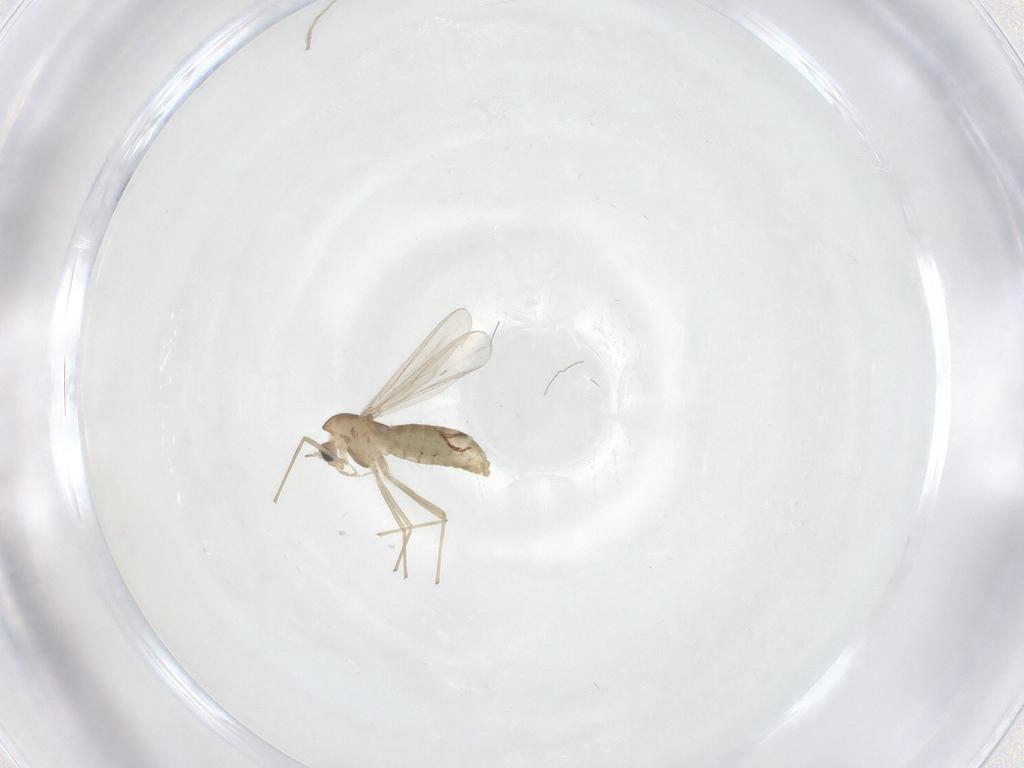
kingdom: Animalia
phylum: Arthropoda
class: Insecta
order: Diptera
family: Chironomidae
